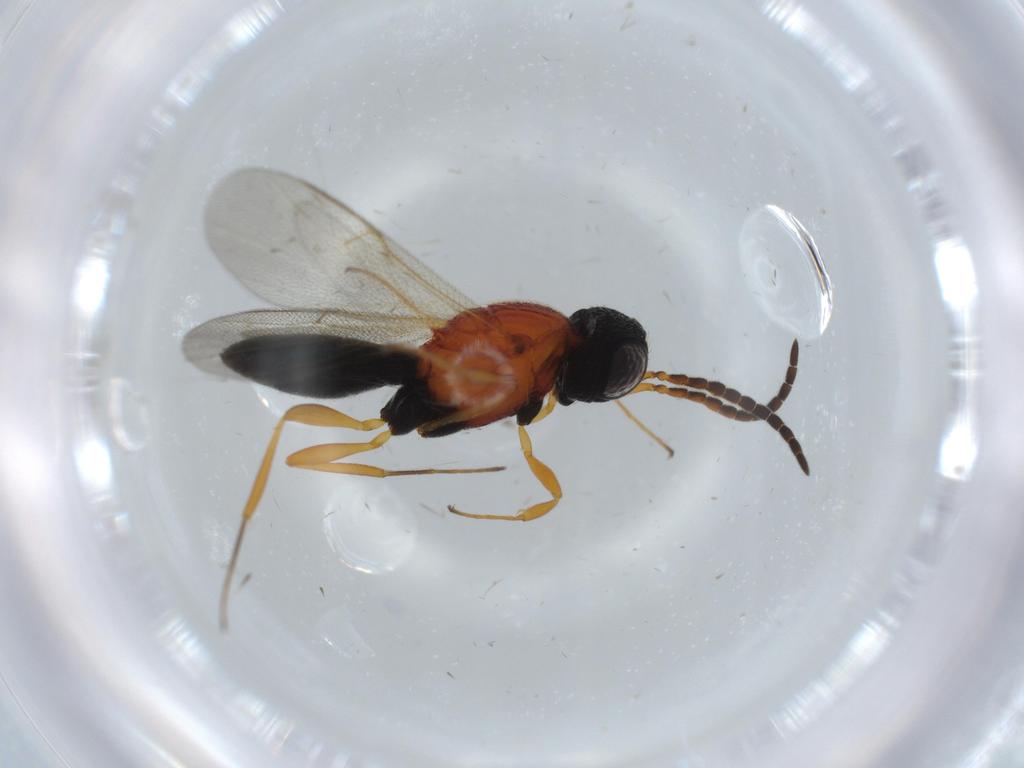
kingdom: Animalia
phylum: Arthropoda
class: Insecta
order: Hymenoptera
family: Scelionidae
